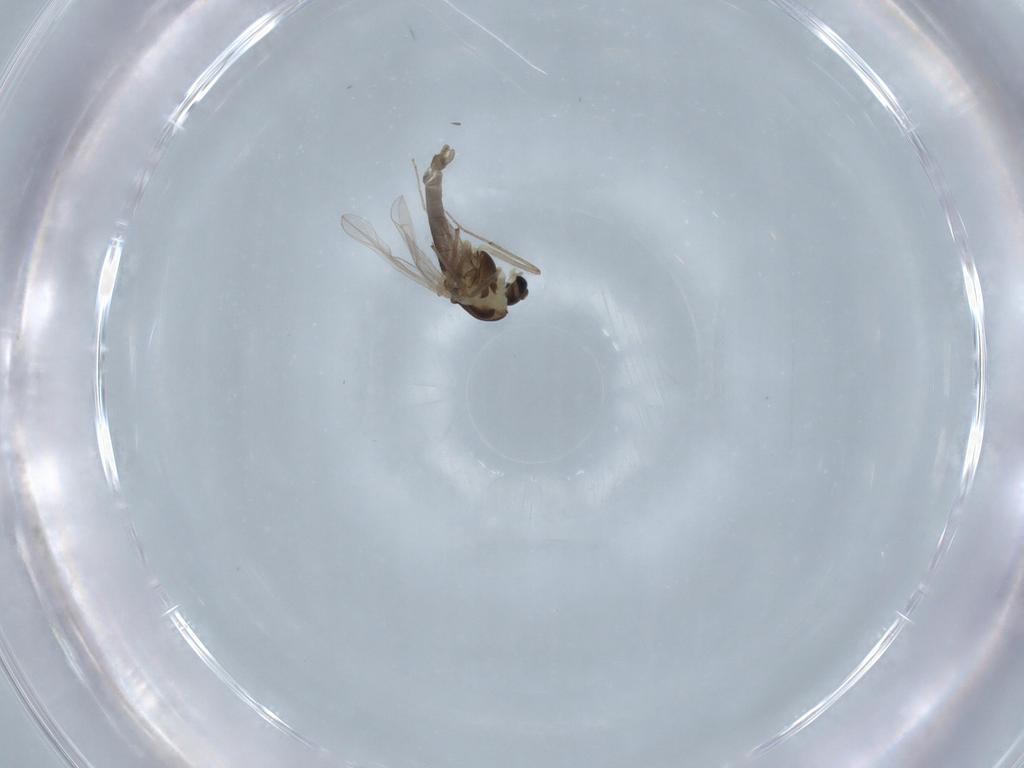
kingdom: Animalia
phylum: Arthropoda
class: Insecta
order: Diptera
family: Chironomidae
